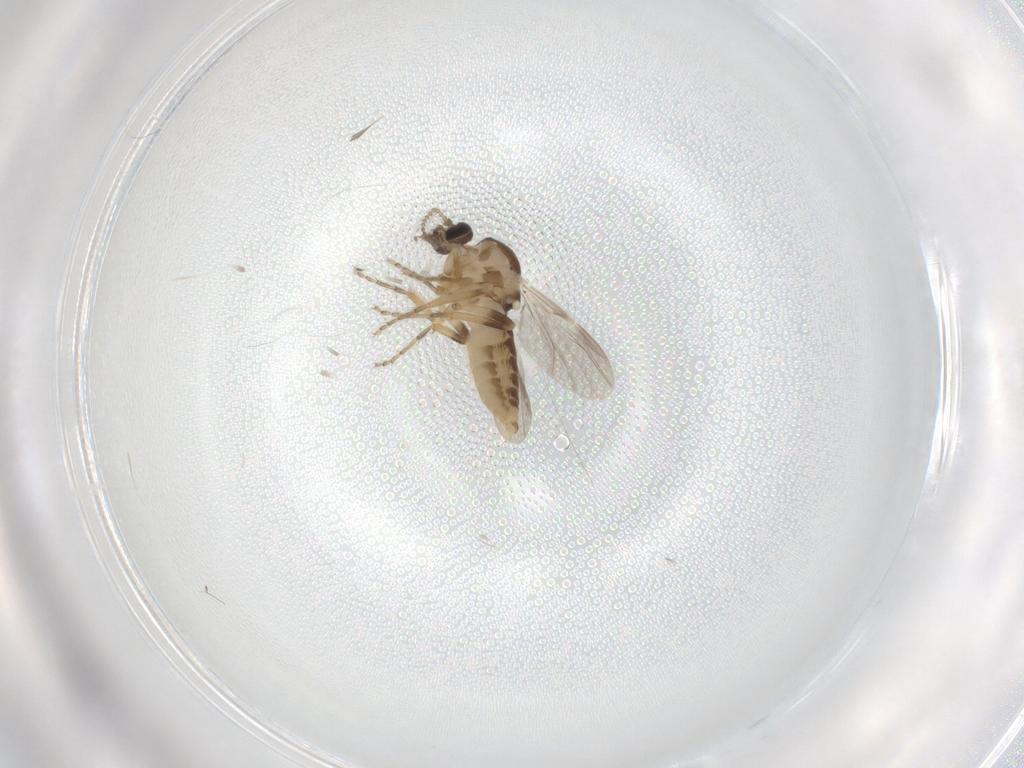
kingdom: Animalia
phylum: Arthropoda
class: Insecta
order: Diptera
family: Ceratopogonidae
